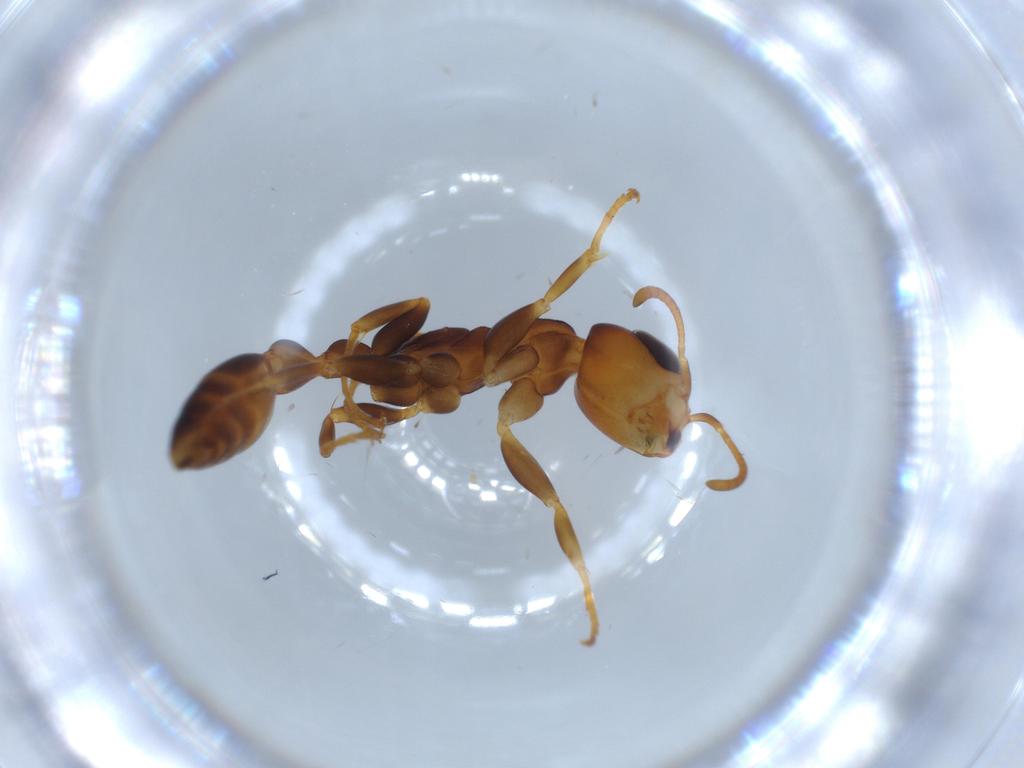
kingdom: Animalia
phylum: Arthropoda
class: Insecta
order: Hymenoptera
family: Formicidae
